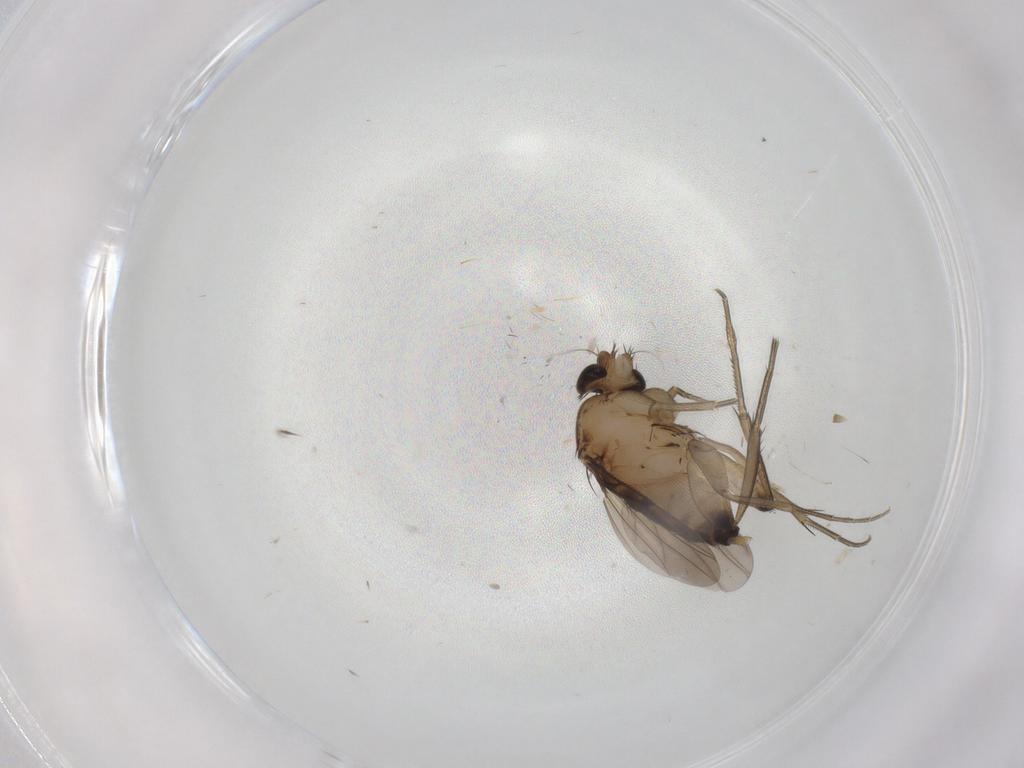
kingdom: Animalia
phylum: Arthropoda
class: Insecta
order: Diptera
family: Cecidomyiidae
